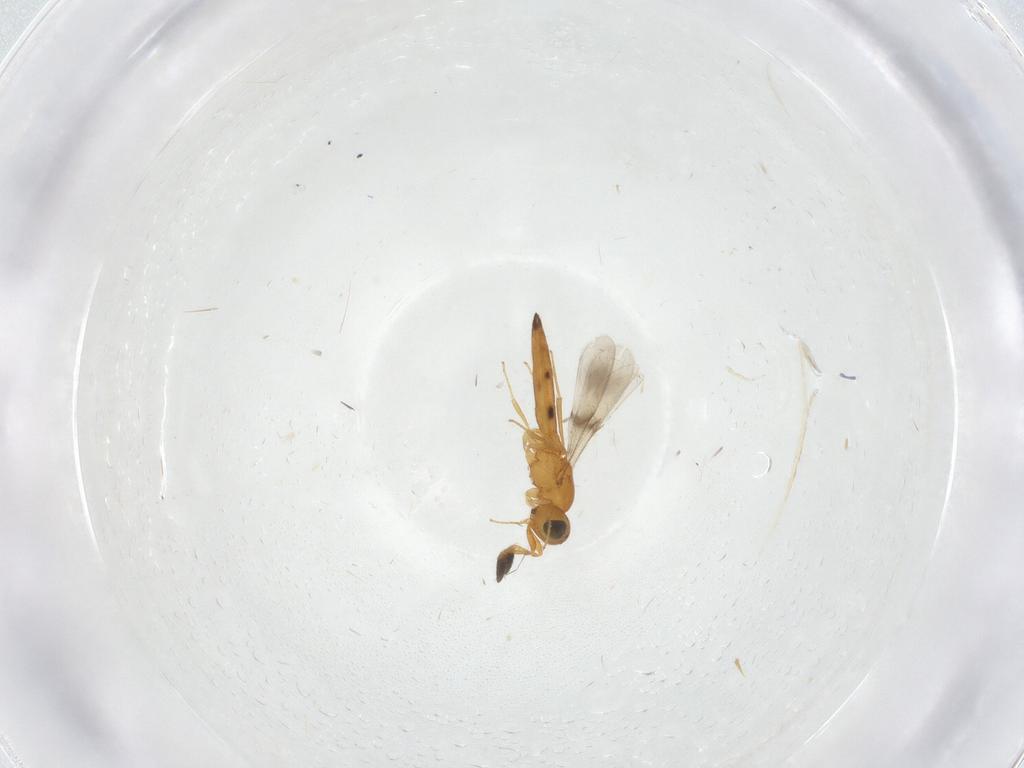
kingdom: Animalia
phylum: Arthropoda
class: Insecta
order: Hymenoptera
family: Scelionidae
